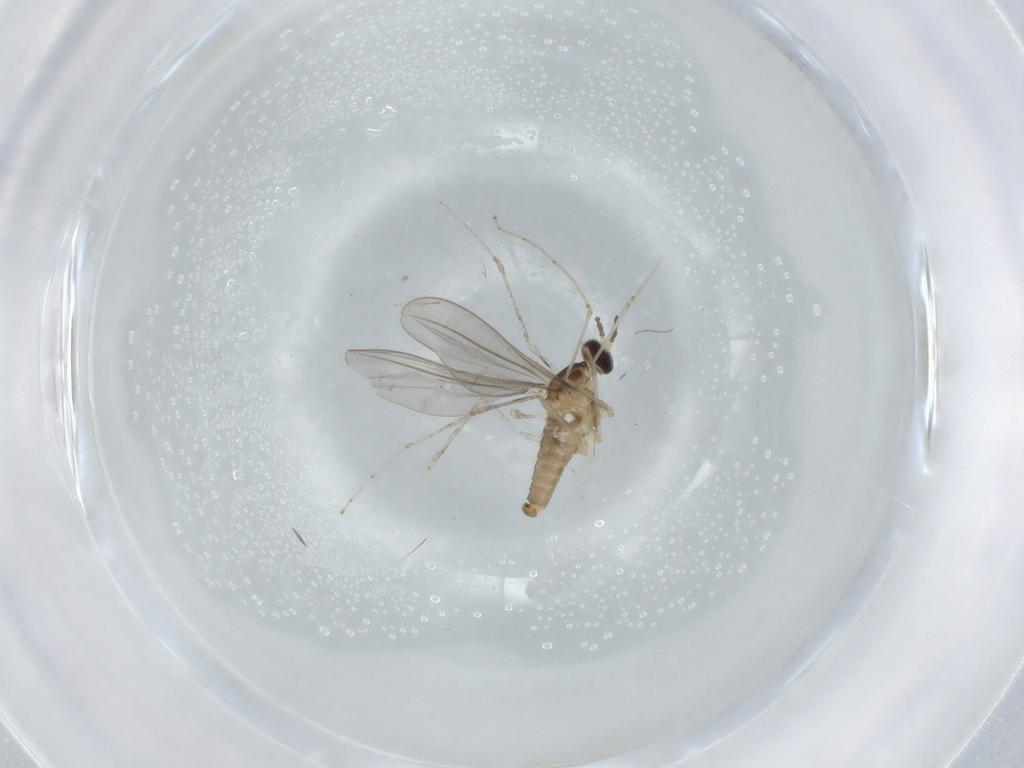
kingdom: Animalia
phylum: Arthropoda
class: Insecta
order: Diptera
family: Cecidomyiidae
